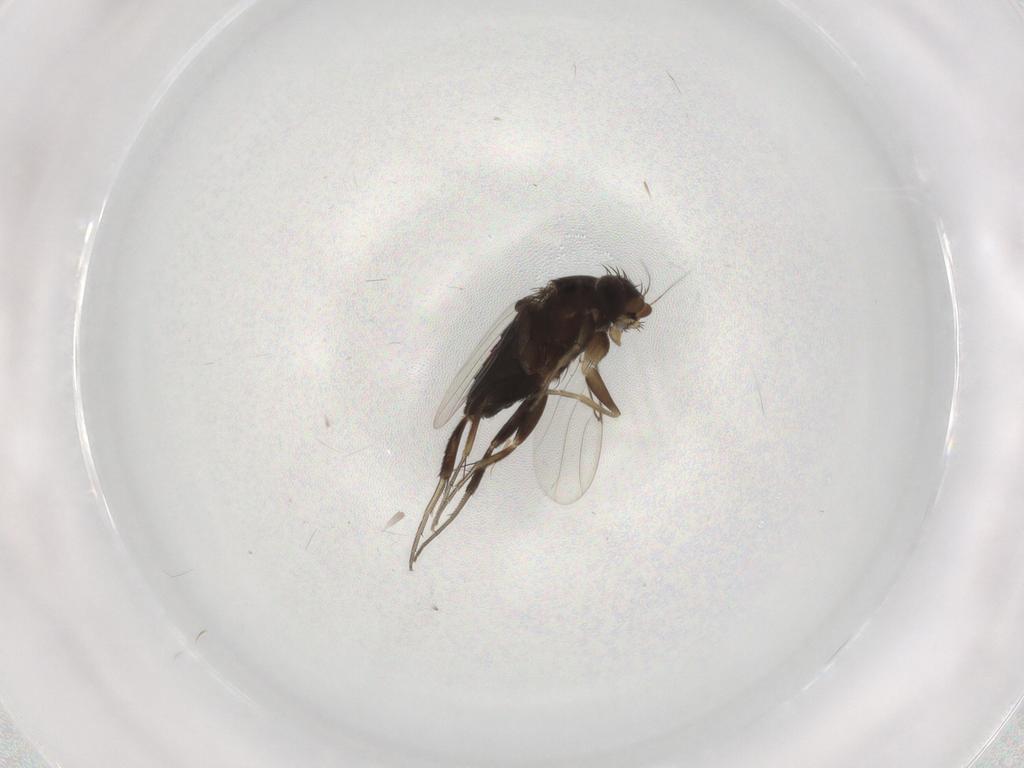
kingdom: Animalia
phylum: Arthropoda
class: Insecta
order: Diptera
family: Phoridae
